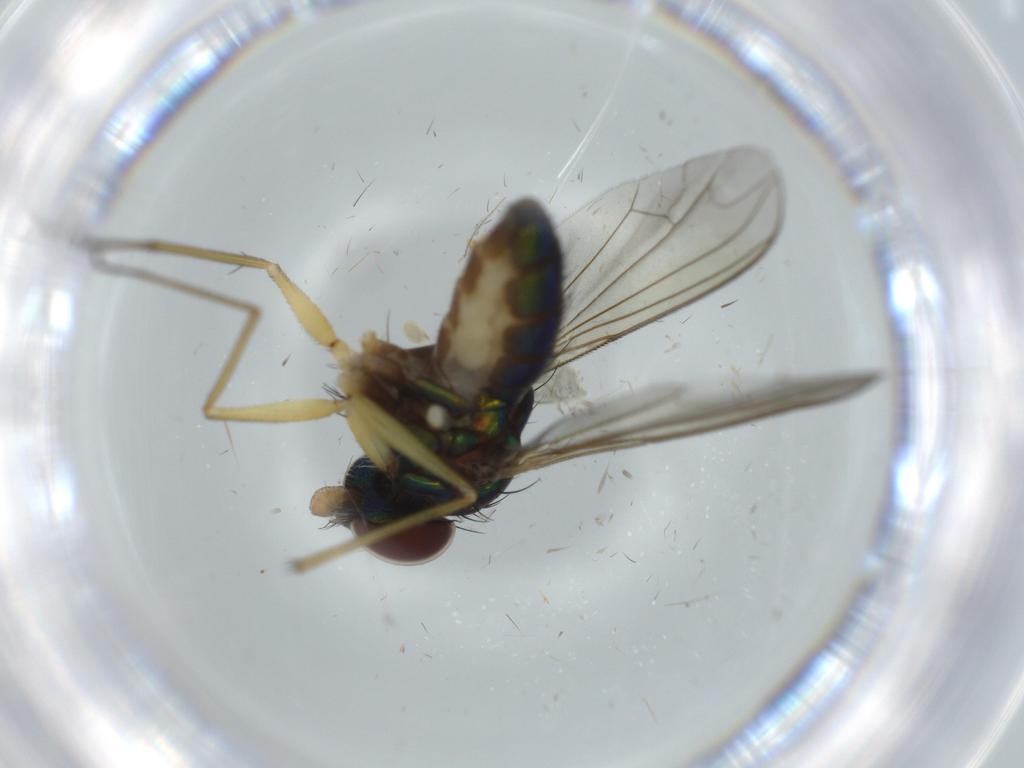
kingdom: Animalia
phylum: Arthropoda
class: Insecta
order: Diptera
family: Dolichopodidae
